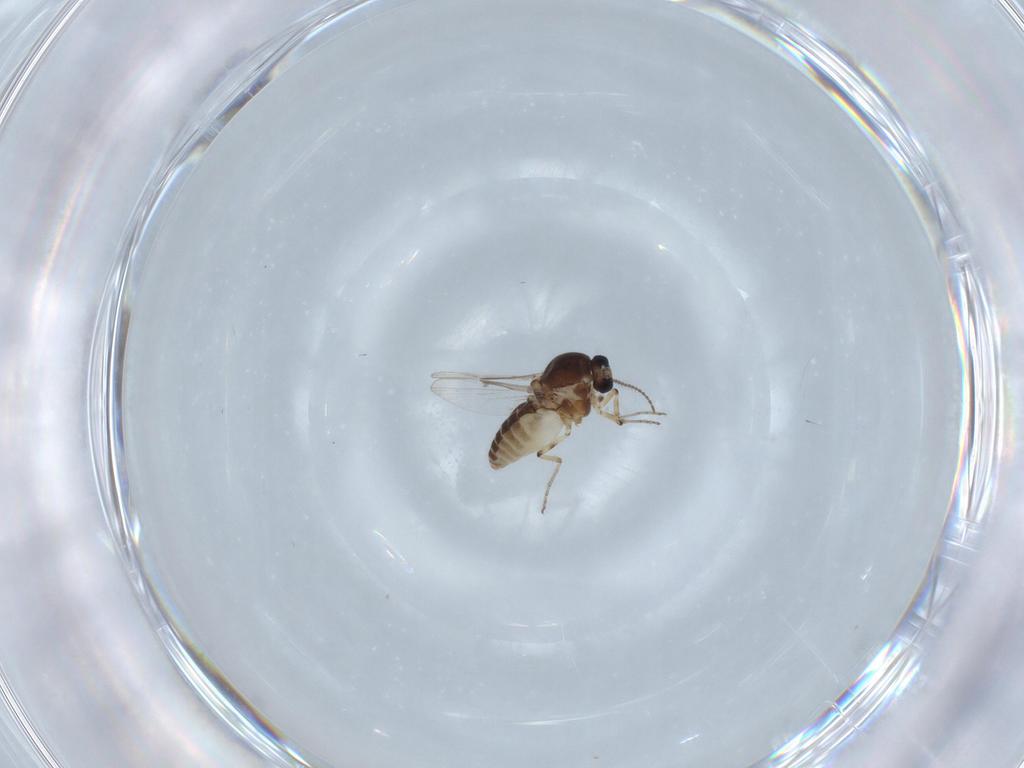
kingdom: Animalia
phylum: Arthropoda
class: Insecta
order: Diptera
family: Ceratopogonidae
